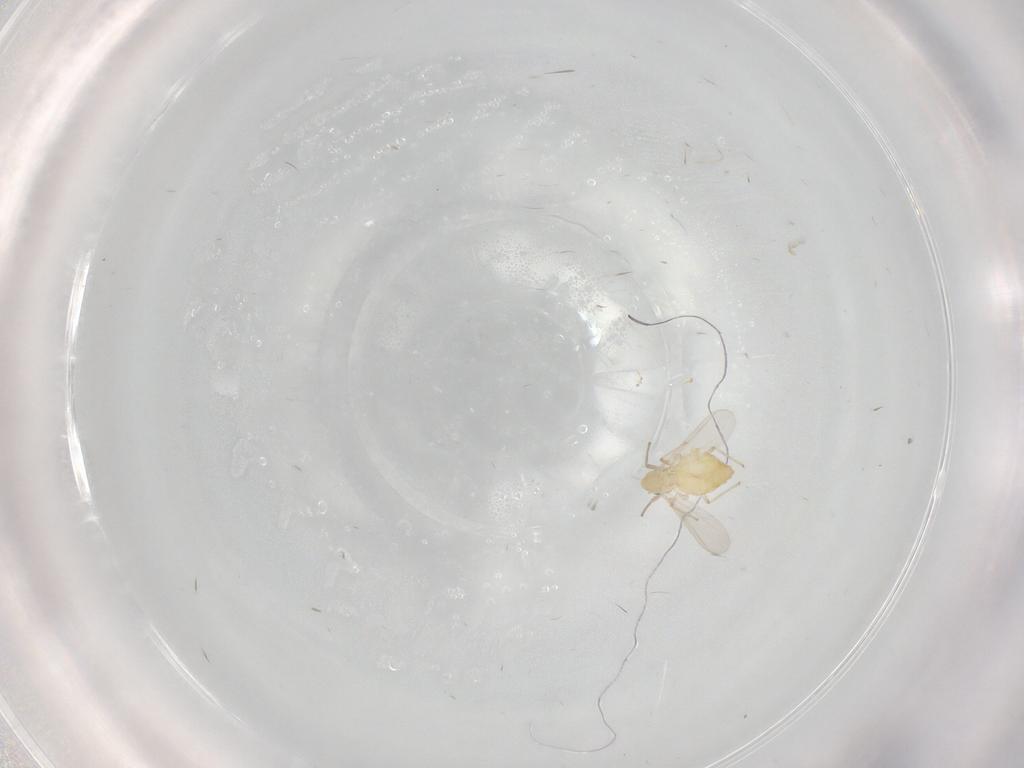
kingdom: Animalia
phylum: Arthropoda
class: Insecta
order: Diptera
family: Chironomidae
